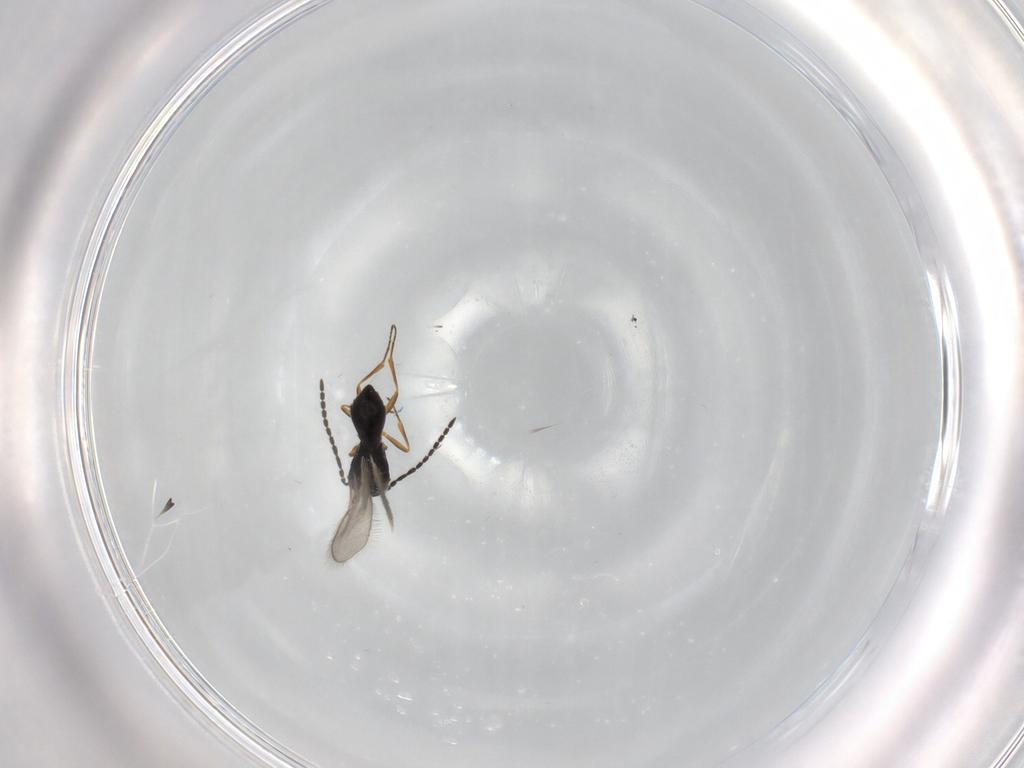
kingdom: Animalia
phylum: Arthropoda
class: Insecta
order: Hymenoptera
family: Scelionidae
